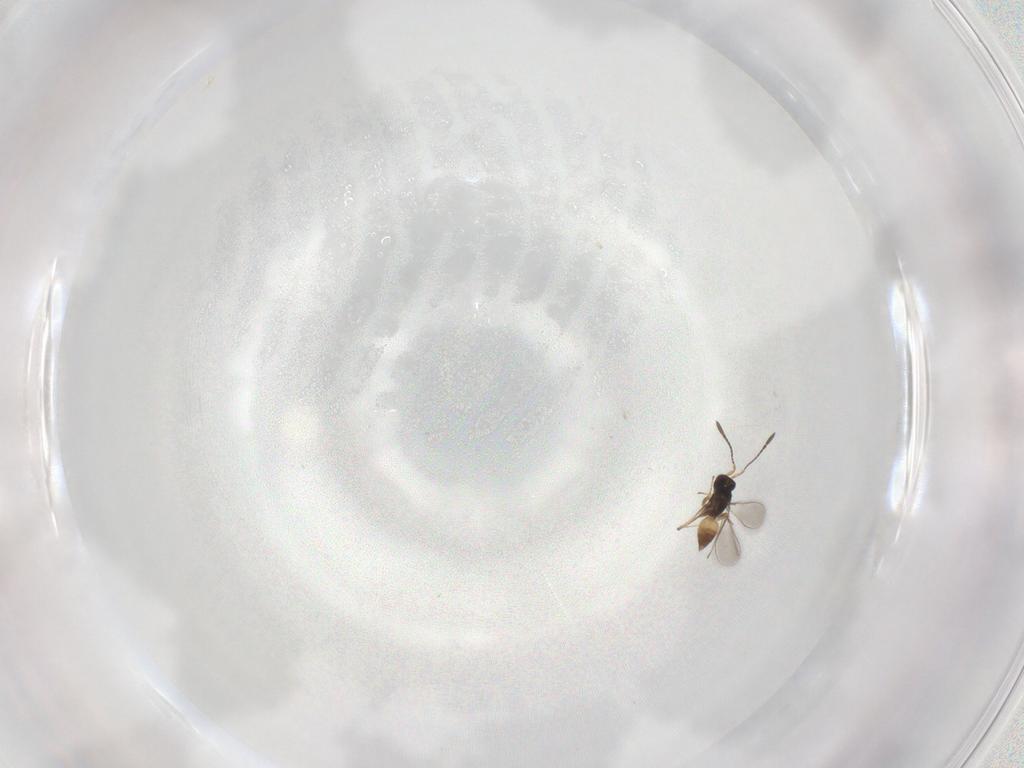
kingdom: Animalia
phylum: Arthropoda
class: Insecta
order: Hymenoptera
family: Mymaridae
